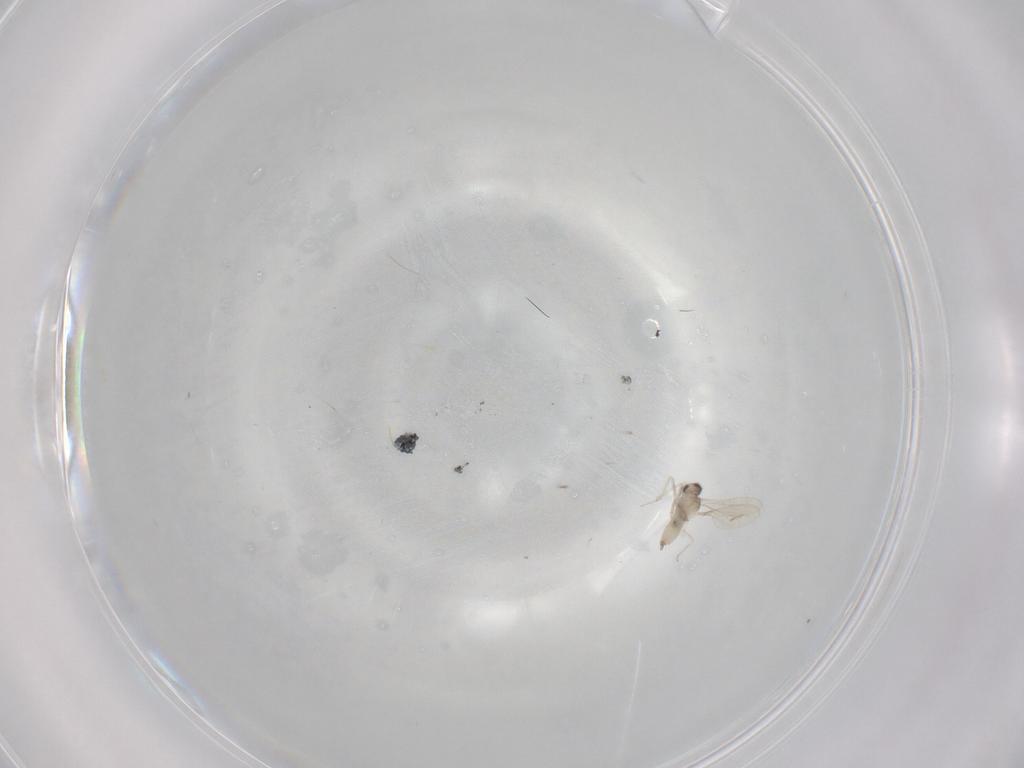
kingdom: Animalia
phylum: Arthropoda
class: Insecta
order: Diptera
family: Cecidomyiidae
